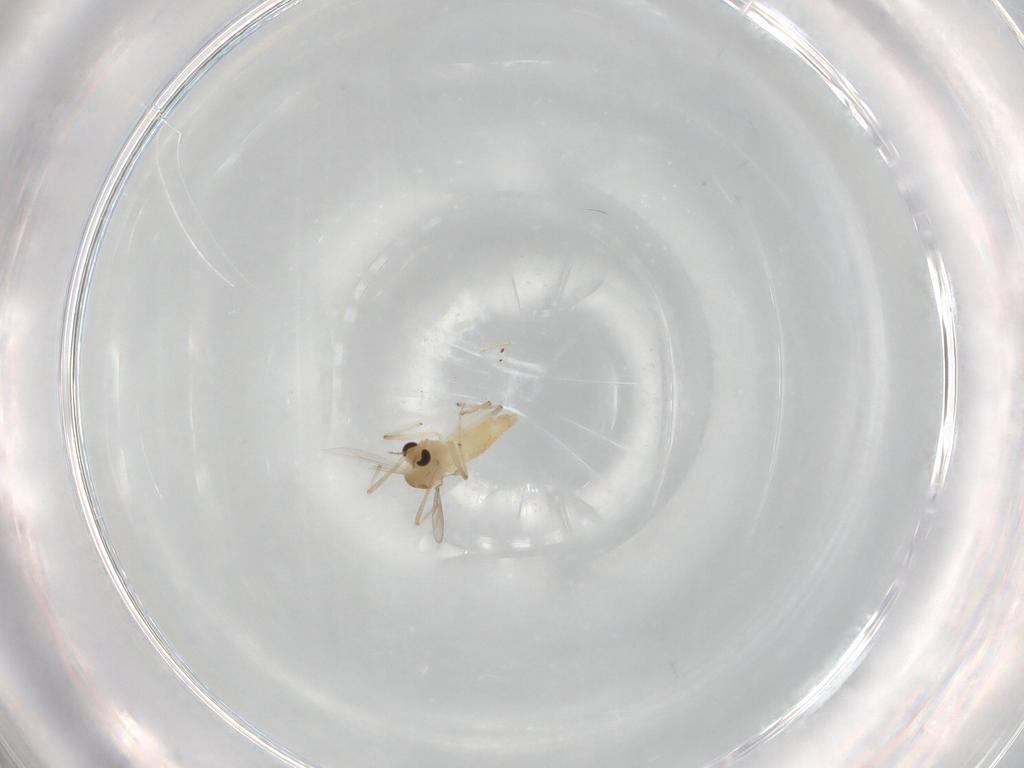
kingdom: Animalia
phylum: Arthropoda
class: Insecta
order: Diptera
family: Chironomidae
